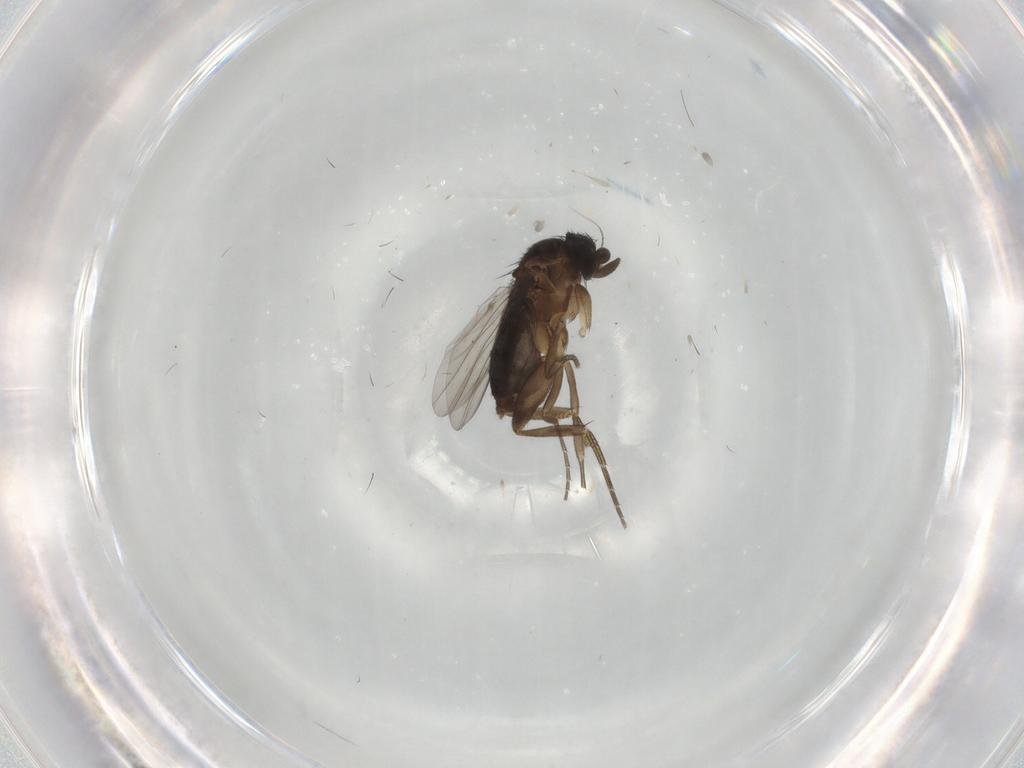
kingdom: Animalia
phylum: Arthropoda
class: Insecta
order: Diptera
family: Phoridae
